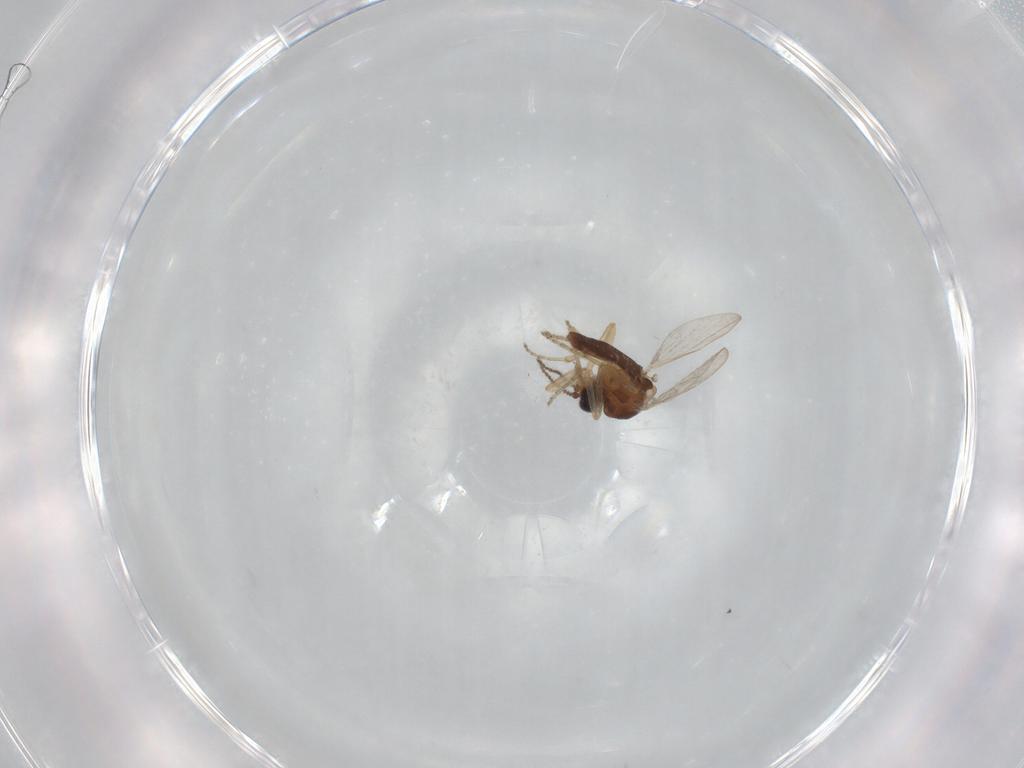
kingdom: Animalia
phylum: Arthropoda
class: Insecta
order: Diptera
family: Ceratopogonidae
